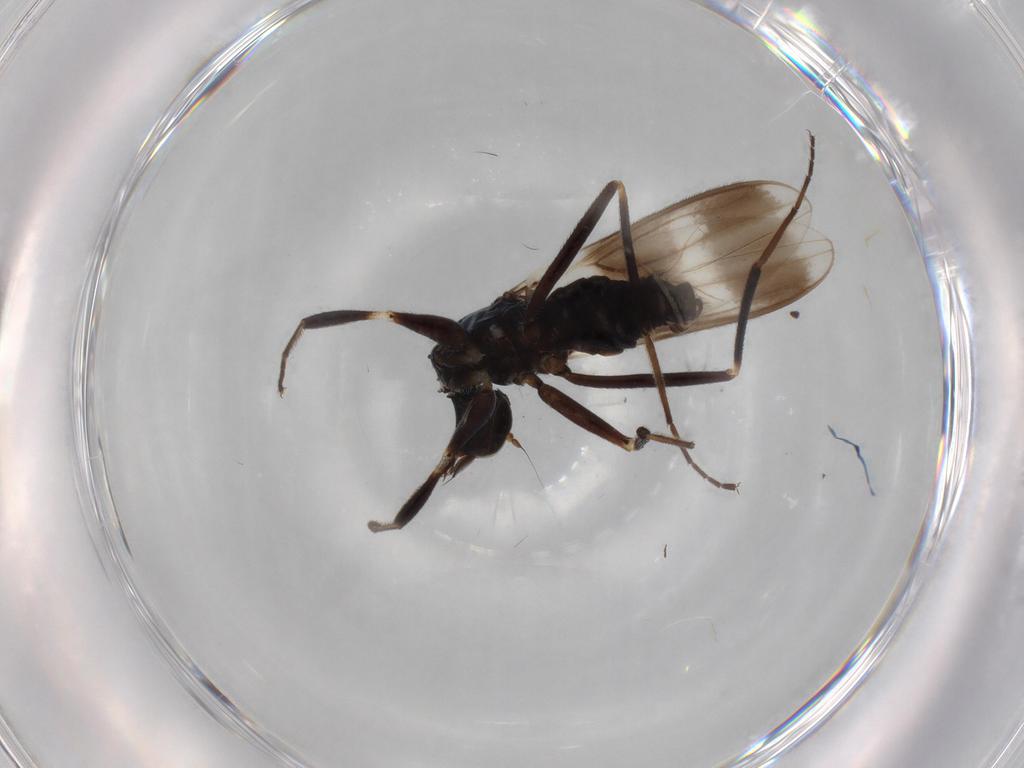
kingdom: Animalia
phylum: Arthropoda
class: Insecta
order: Diptera
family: Hybotidae
